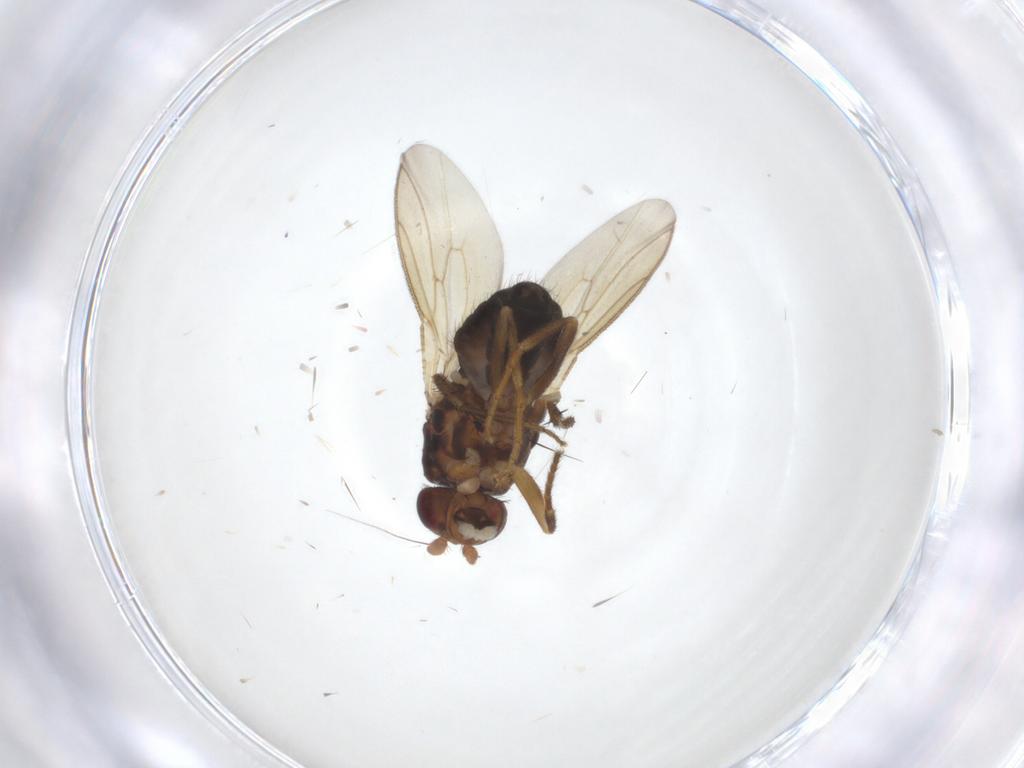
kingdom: Animalia
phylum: Arthropoda
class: Insecta
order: Diptera
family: Sphaeroceridae
